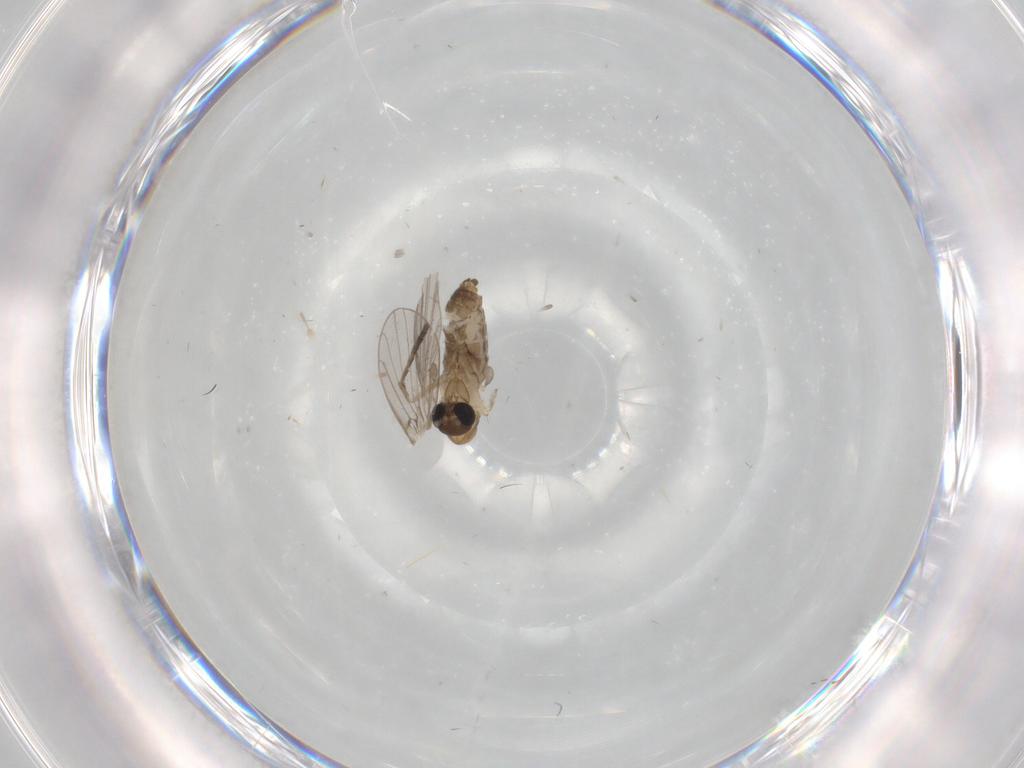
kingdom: Animalia
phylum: Arthropoda
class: Insecta
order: Diptera
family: Psychodidae
